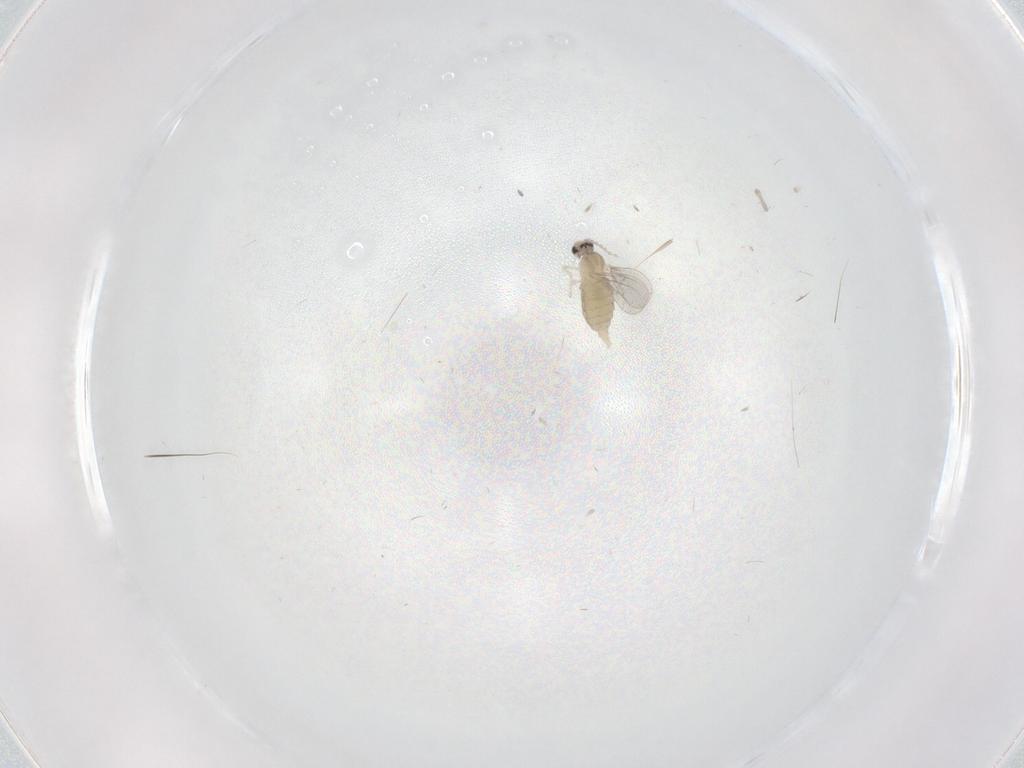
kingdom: Animalia
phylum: Arthropoda
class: Insecta
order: Diptera
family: Cecidomyiidae
